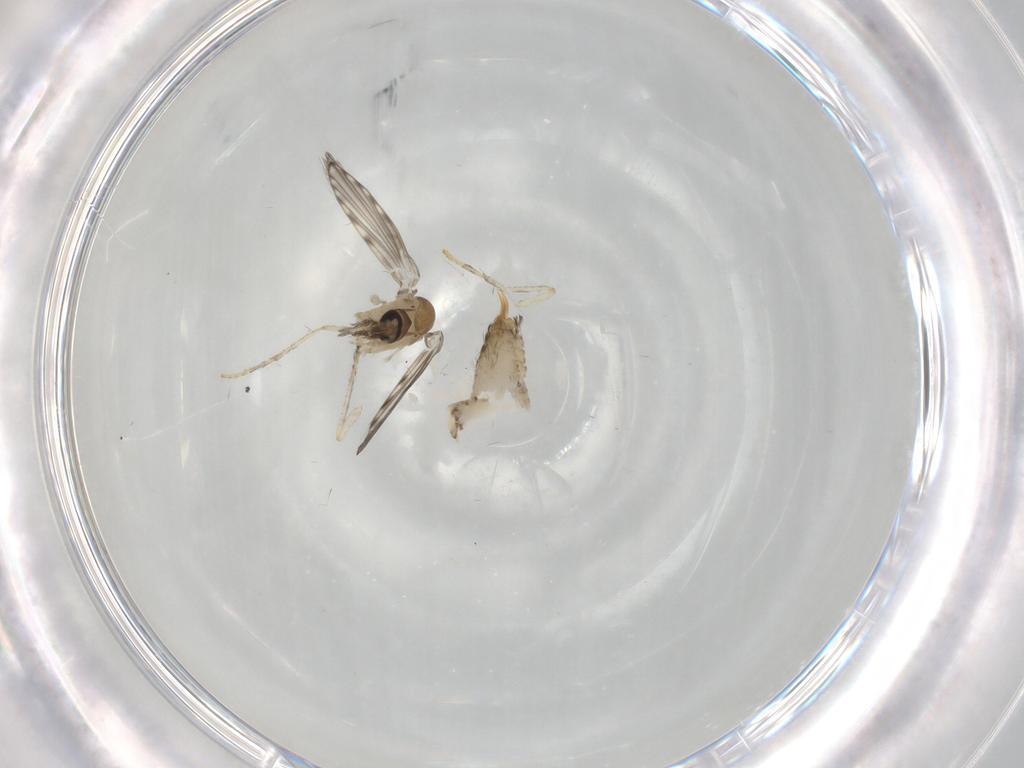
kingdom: Animalia
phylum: Arthropoda
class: Insecta
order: Diptera
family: Psychodidae
